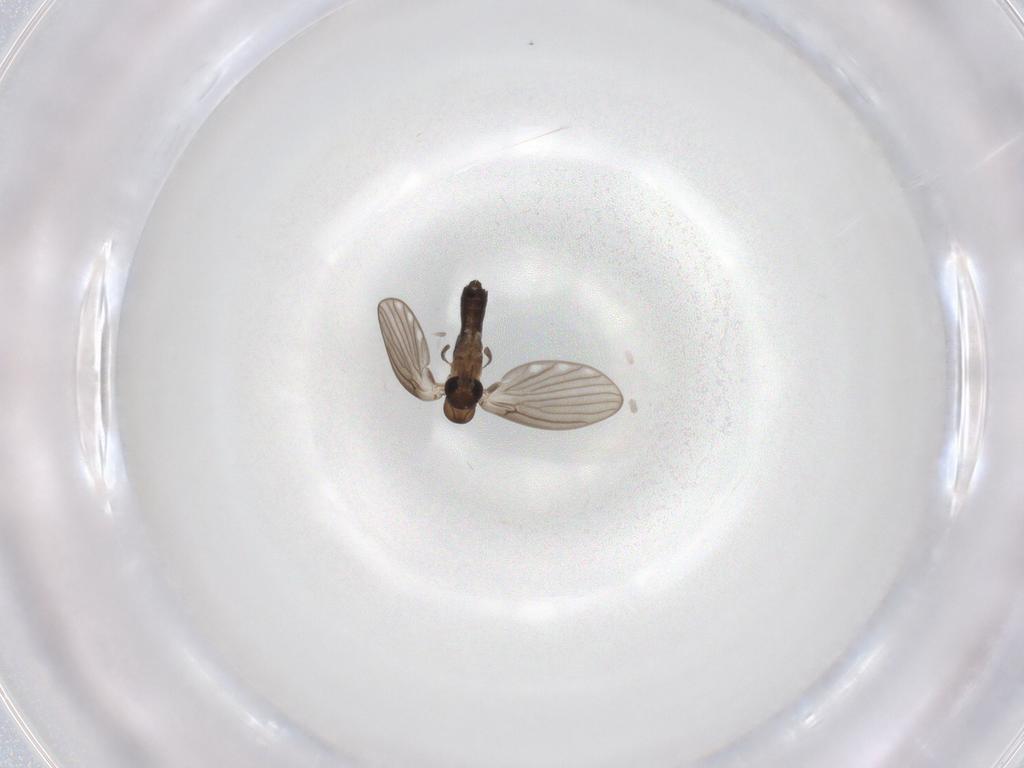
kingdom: Animalia
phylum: Arthropoda
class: Insecta
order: Diptera
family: Psychodidae
